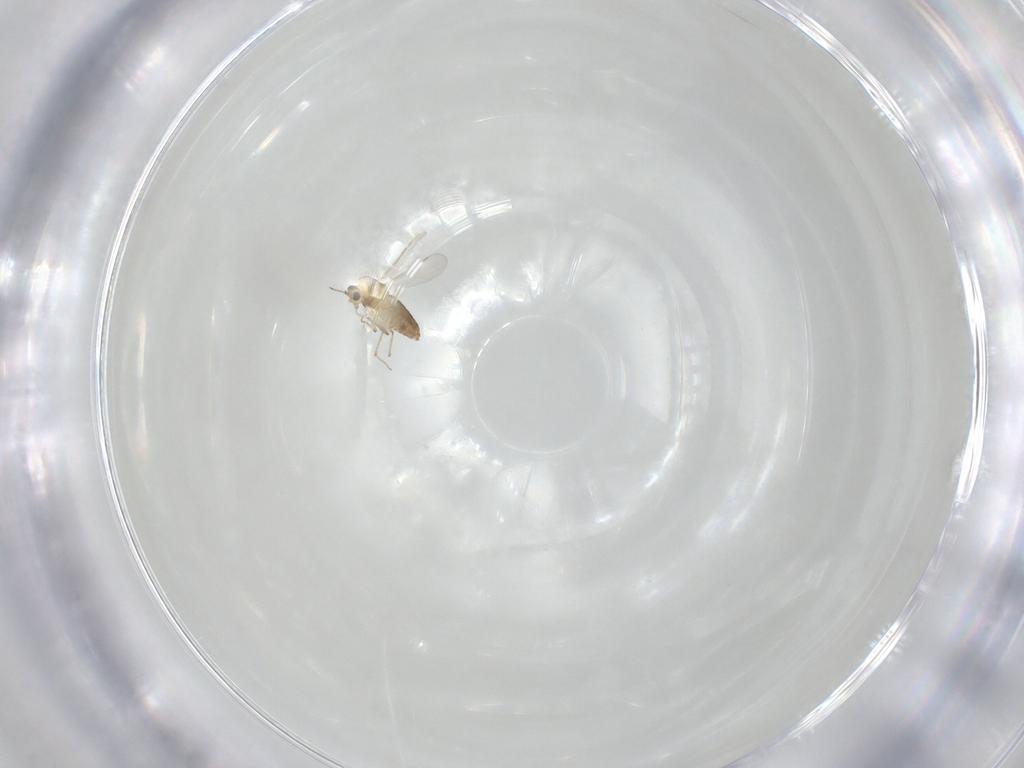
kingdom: Animalia
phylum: Arthropoda
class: Insecta
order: Diptera
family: Chironomidae
